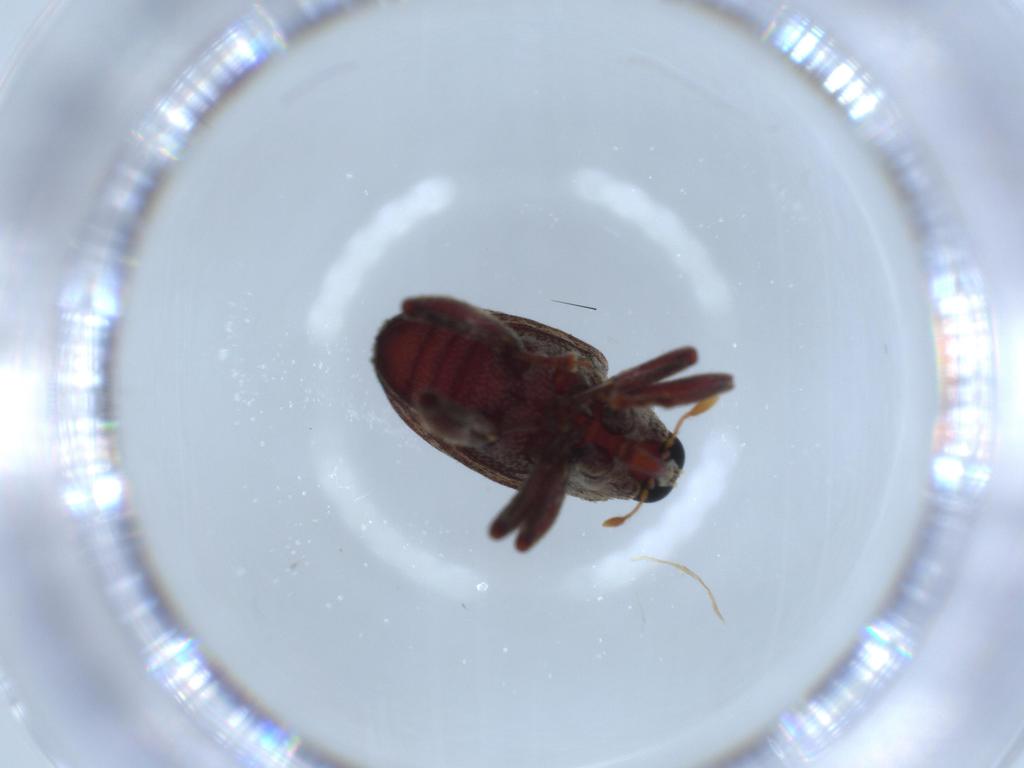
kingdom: Animalia
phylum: Arthropoda
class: Insecta
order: Coleoptera
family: Curculionidae
